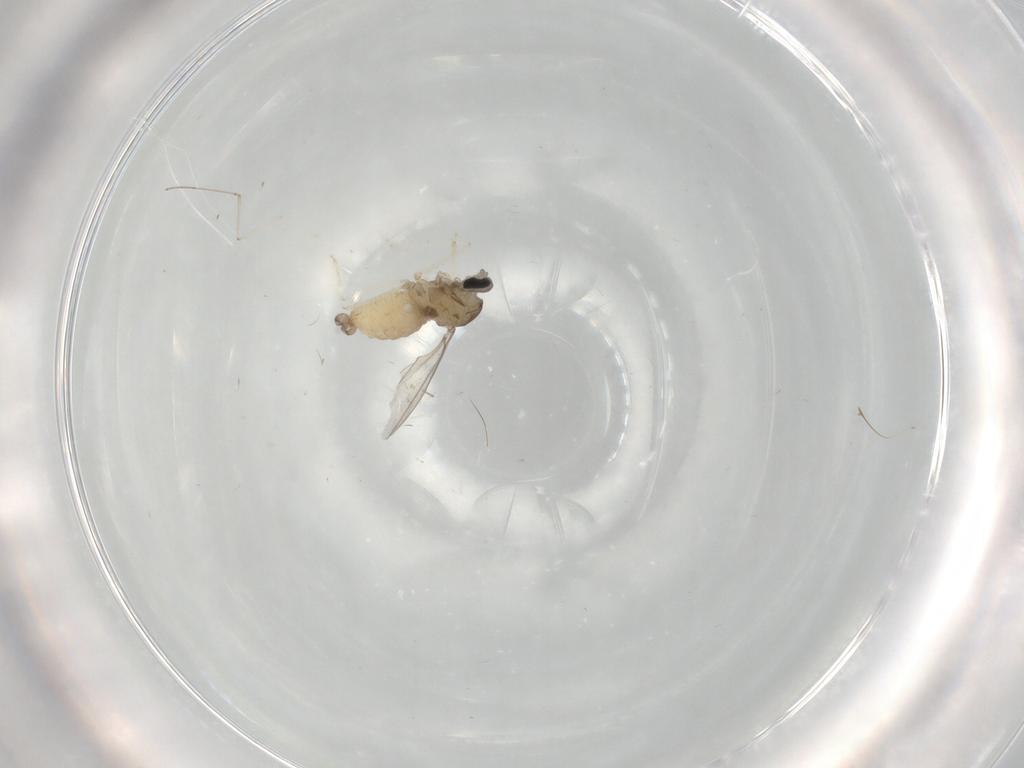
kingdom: Animalia
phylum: Arthropoda
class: Insecta
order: Diptera
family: Cecidomyiidae
